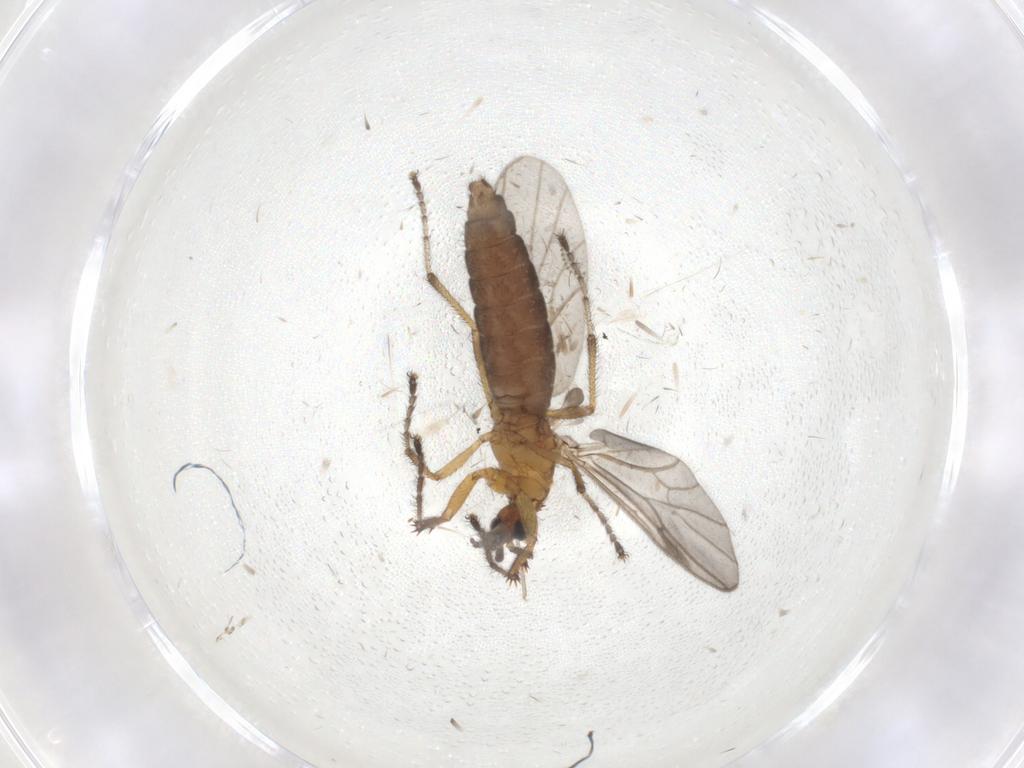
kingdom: Animalia
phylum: Arthropoda
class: Insecta
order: Diptera
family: Bibionidae
